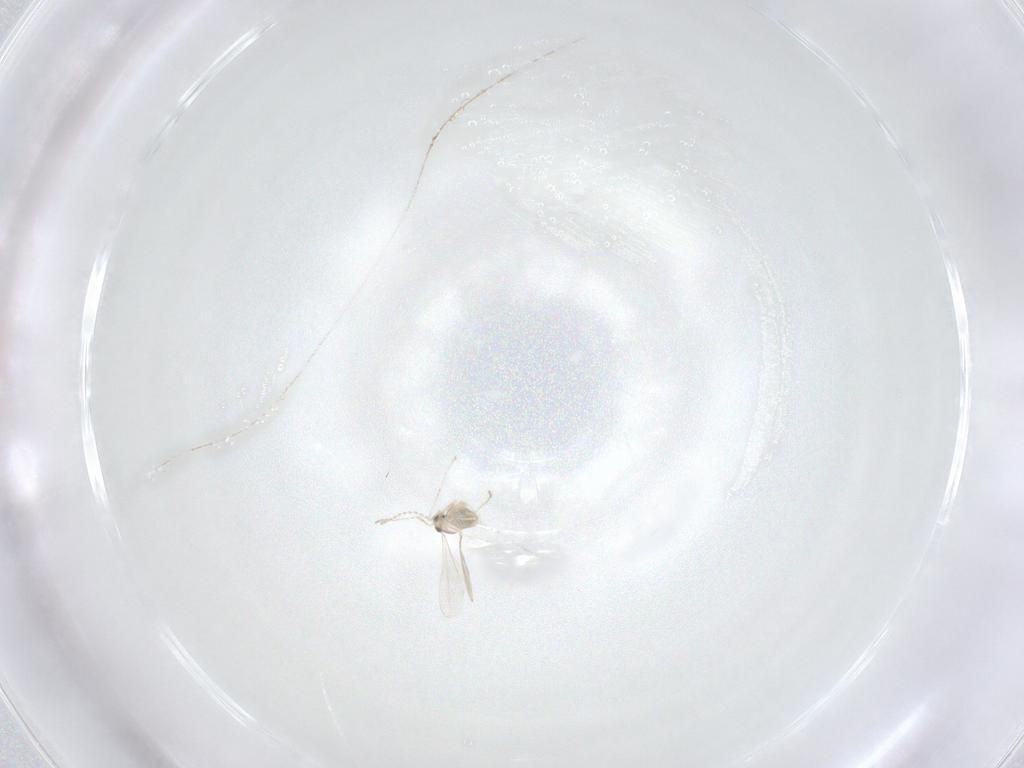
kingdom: Animalia
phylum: Arthropoda
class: Insecta
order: Diptera
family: Cecidomyiidae
